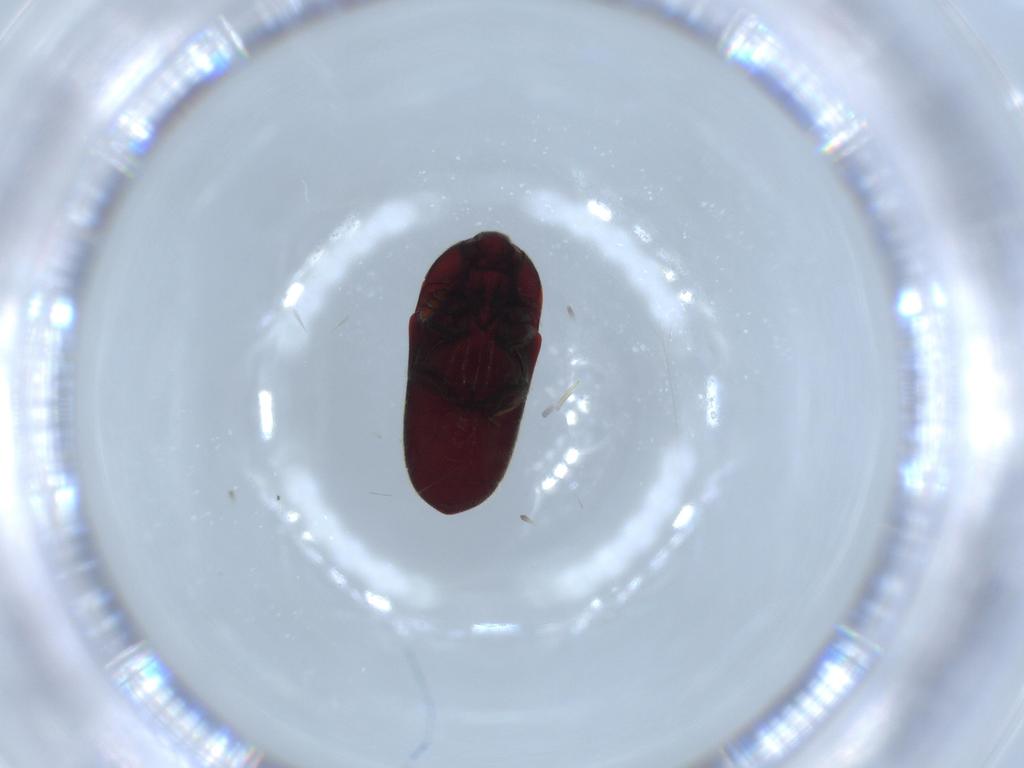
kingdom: Animalia
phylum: Arthropoda
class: Insecta
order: Coleoptera
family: Throscidae
